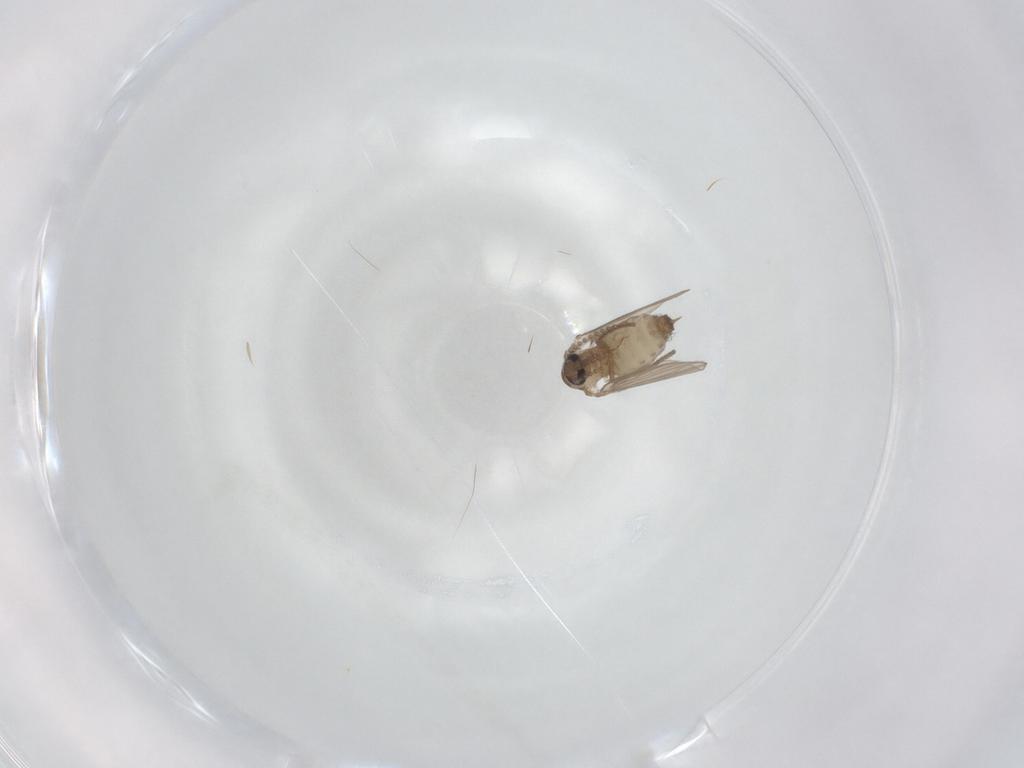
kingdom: Animalia
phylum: Arthropoda
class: Insecta
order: Diptera
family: Psychodidae
